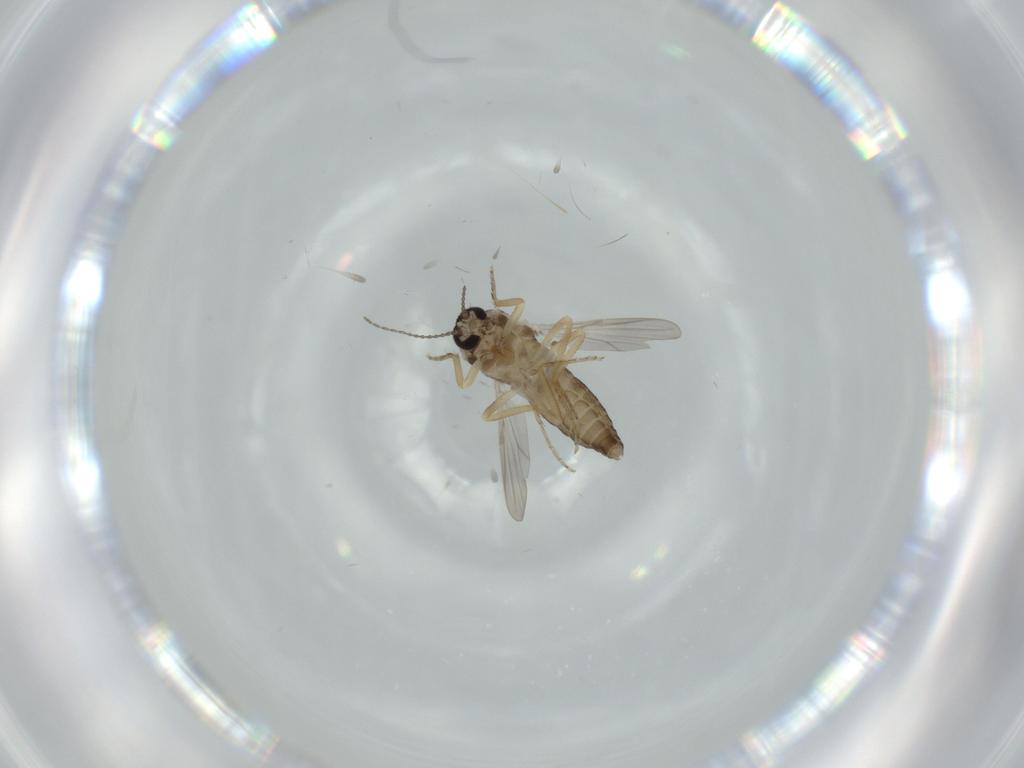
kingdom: Animalia
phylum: Arthropoda
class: Insecta
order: Diptera
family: Ceratopogonidae
